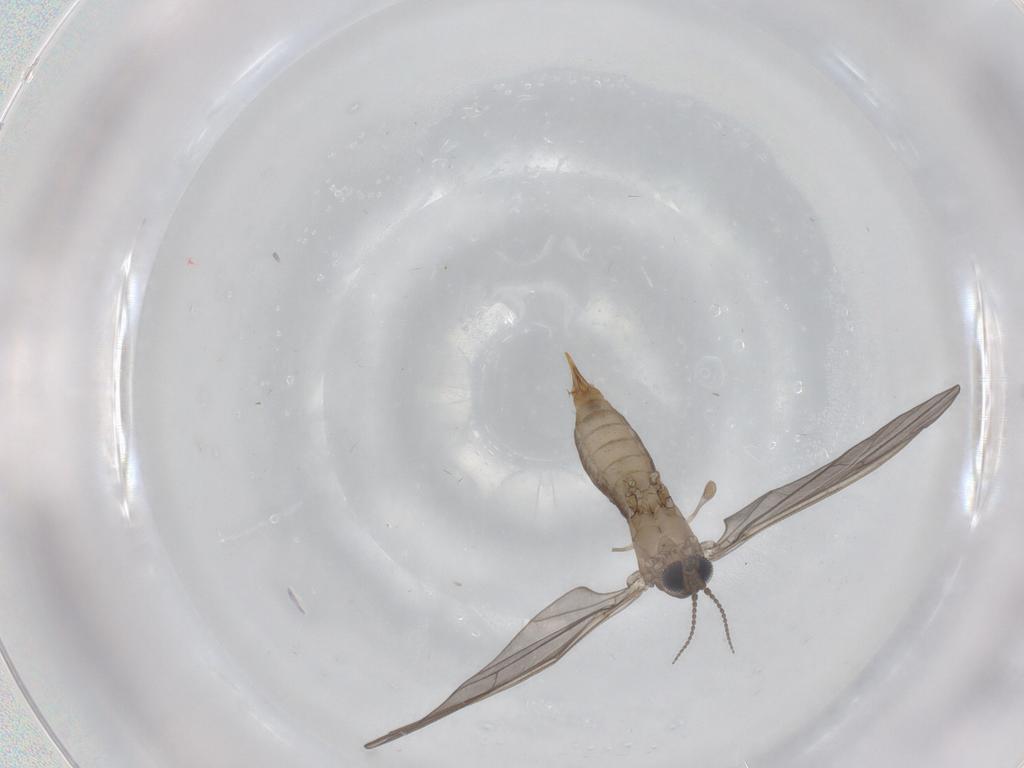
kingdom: Animalia
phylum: Arthropoda
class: Insecta
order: Diptera
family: Limoniidae
